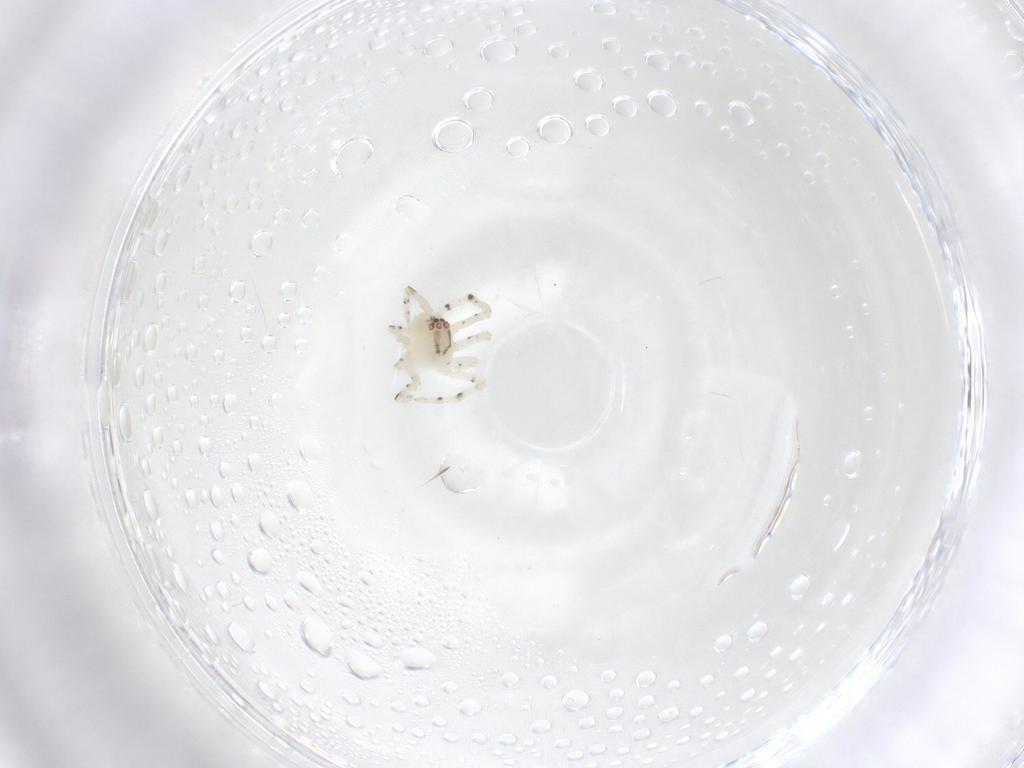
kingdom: Animalia
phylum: Arthropoda
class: Arachnida
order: Araneae
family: Theridiidae
